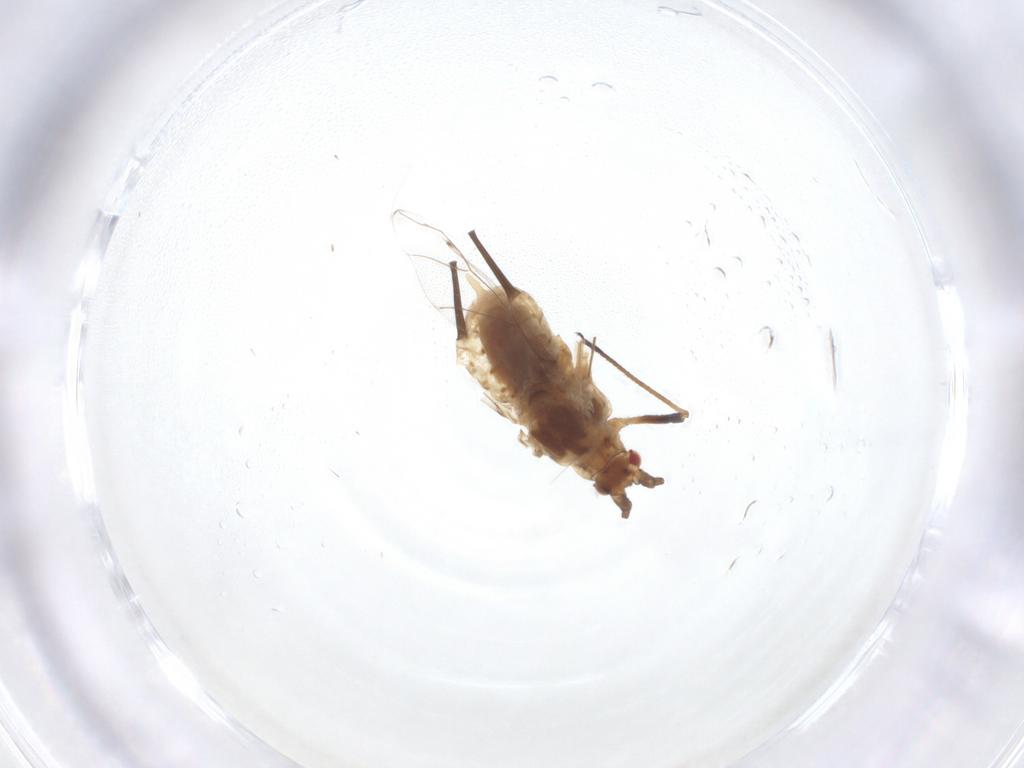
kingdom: Animalia
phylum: Arthropoda
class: Insecta
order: Hemiptera
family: Aphididae
